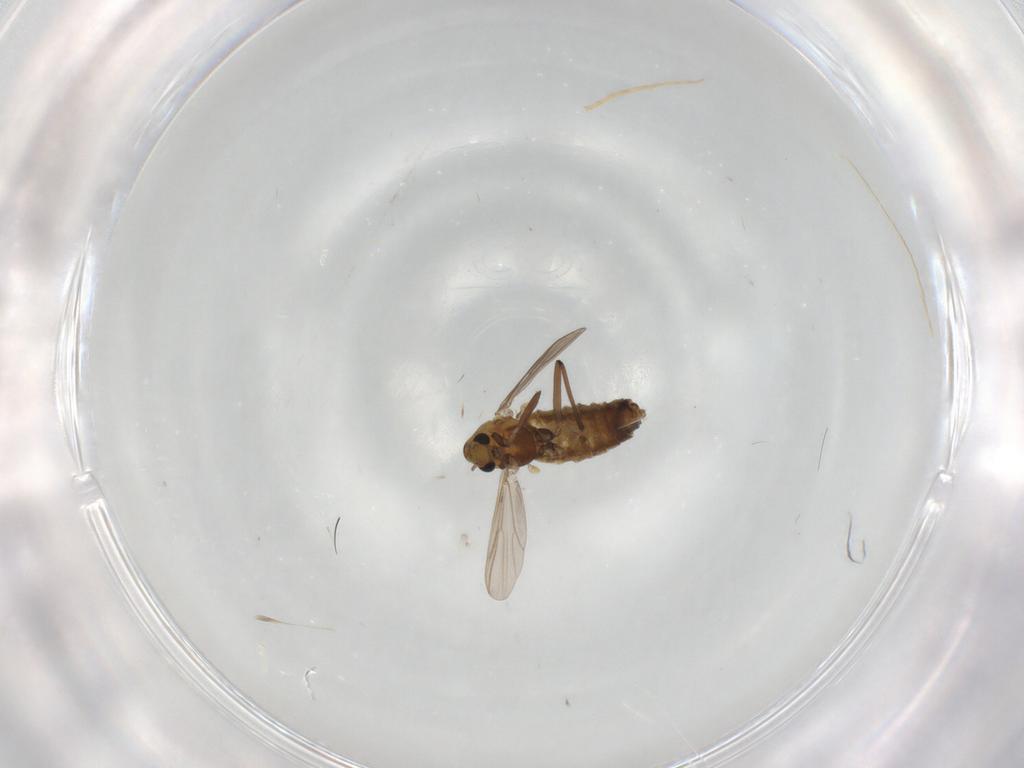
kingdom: Animalia
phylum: Arthropoda
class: Insecta
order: Diptera
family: Chironomidae
